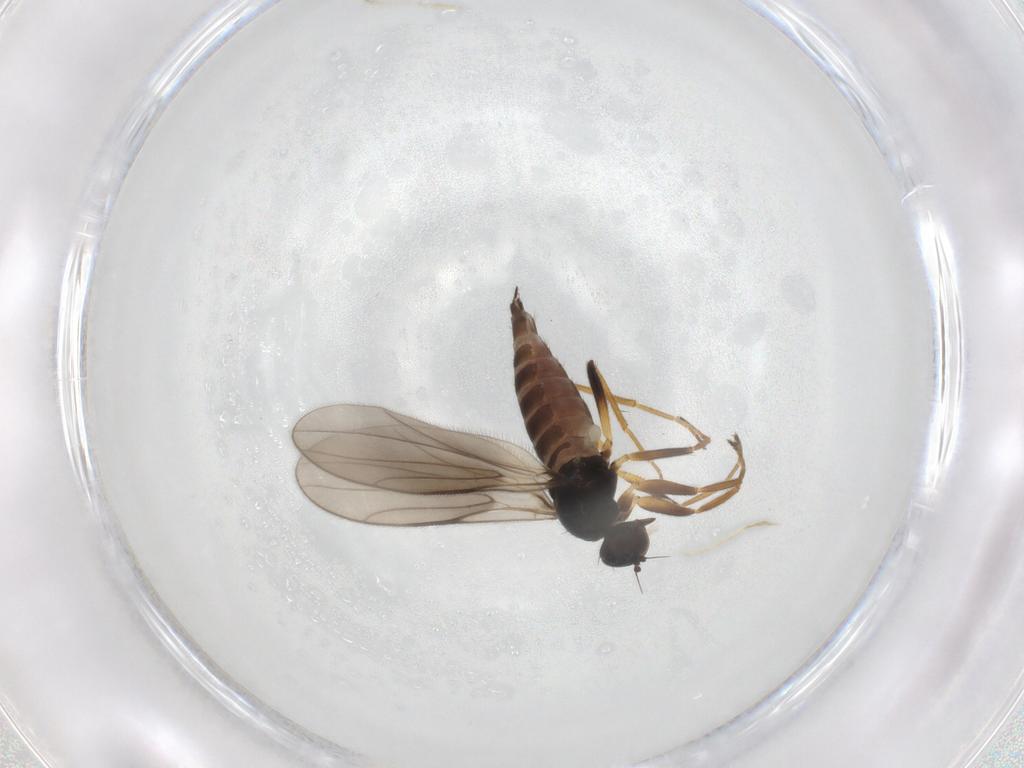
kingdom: Animalia
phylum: Arthropoda
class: Insecta
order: Diptera
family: Hybotidae
